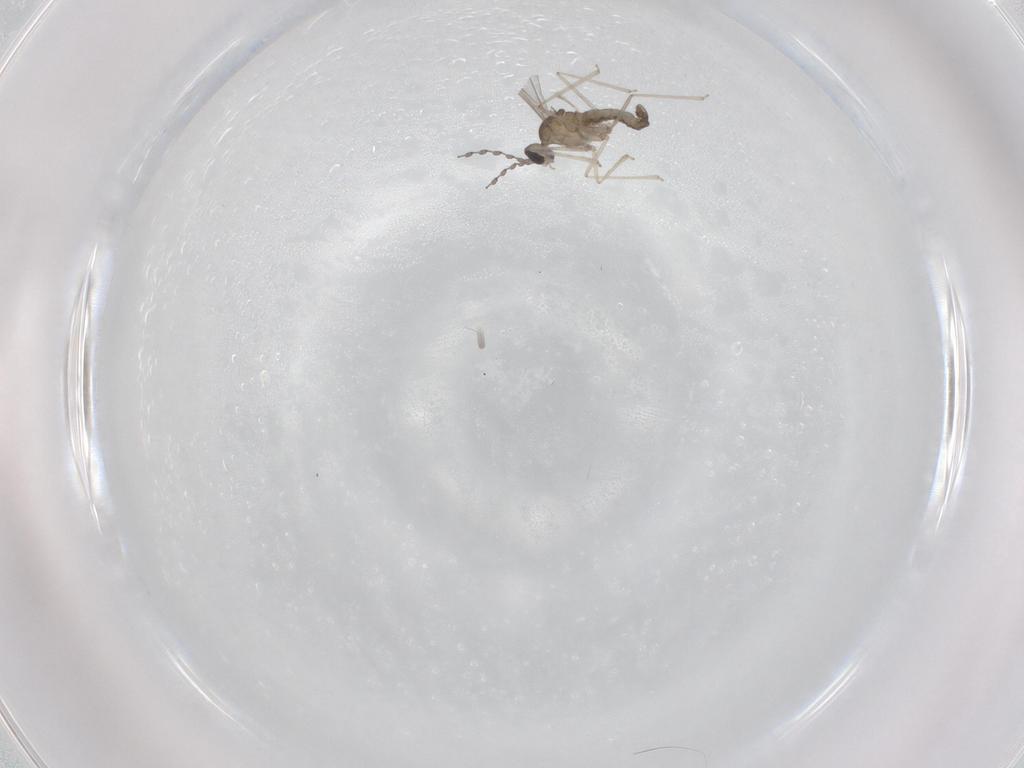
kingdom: Animalia
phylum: Arthropoda
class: Insecta
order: Diptera
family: Cecidomyiidae
